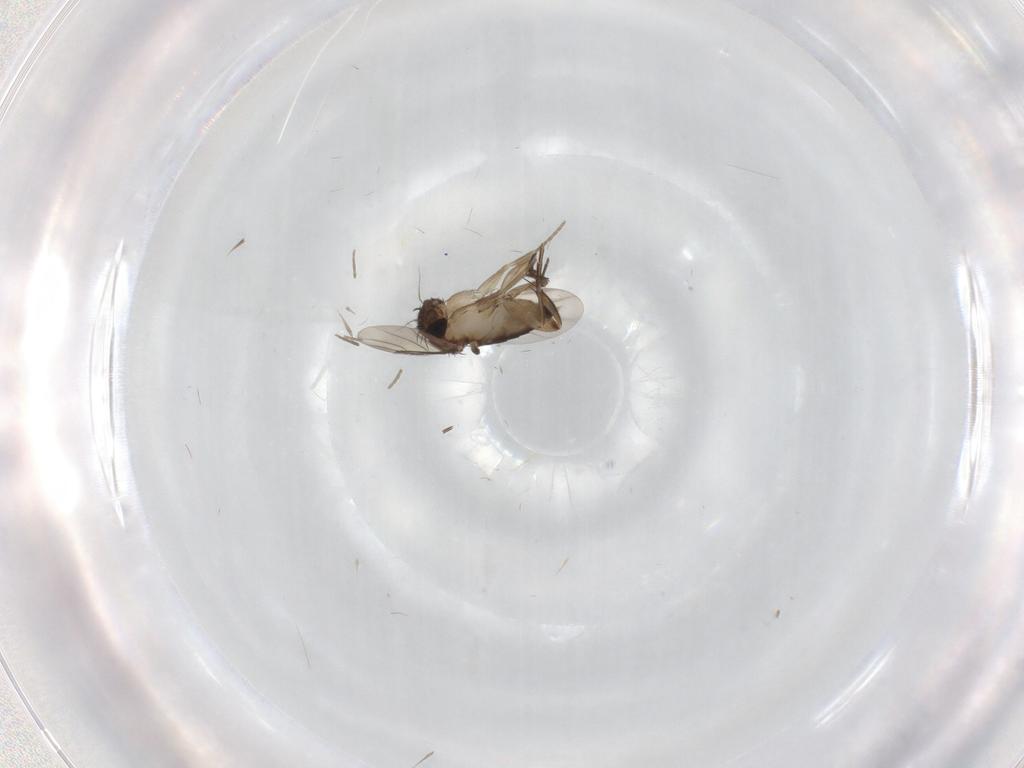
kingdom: Animalia
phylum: Arthropoda
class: Insecta
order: Diptera
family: Phoridae
